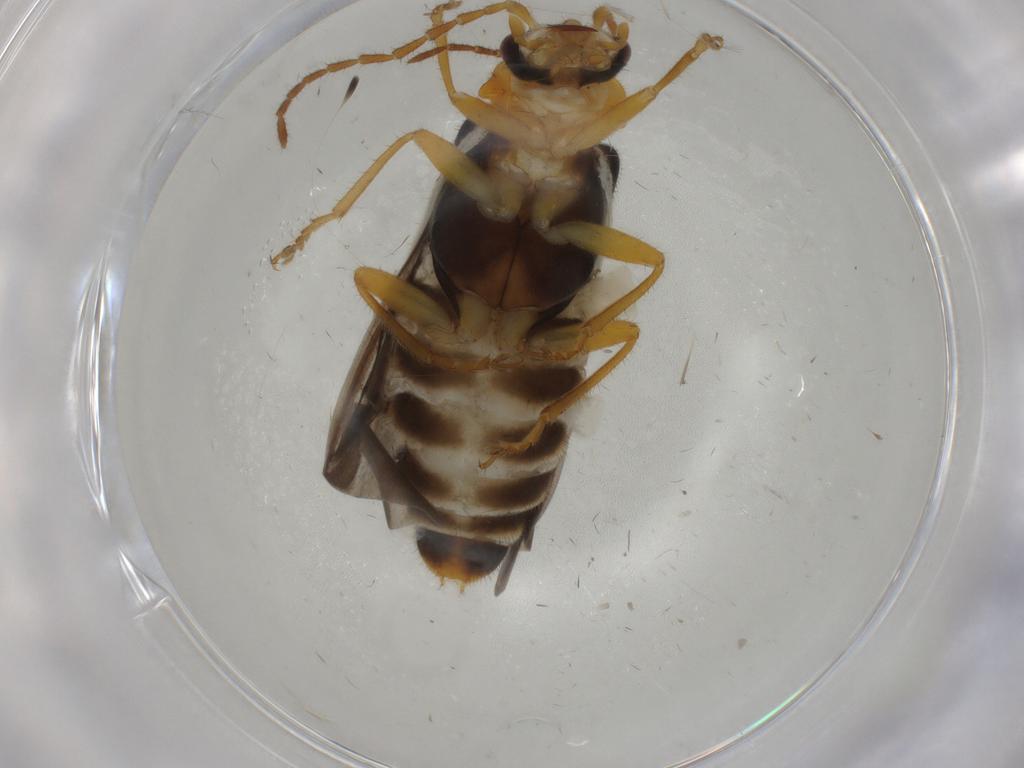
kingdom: Animalia
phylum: Arthropoda
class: Insecta
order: Coleoptera
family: Cantharidae
